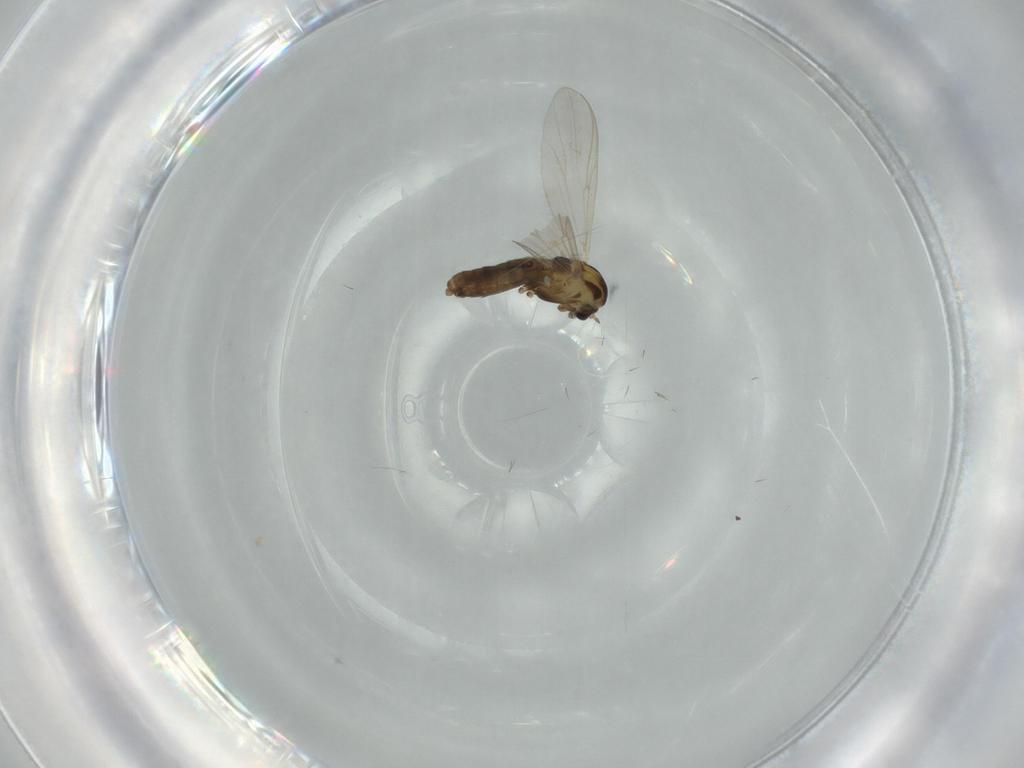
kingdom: Animalia
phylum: Arthropoda
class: Insecta
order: Diptera
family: Chironomidae
